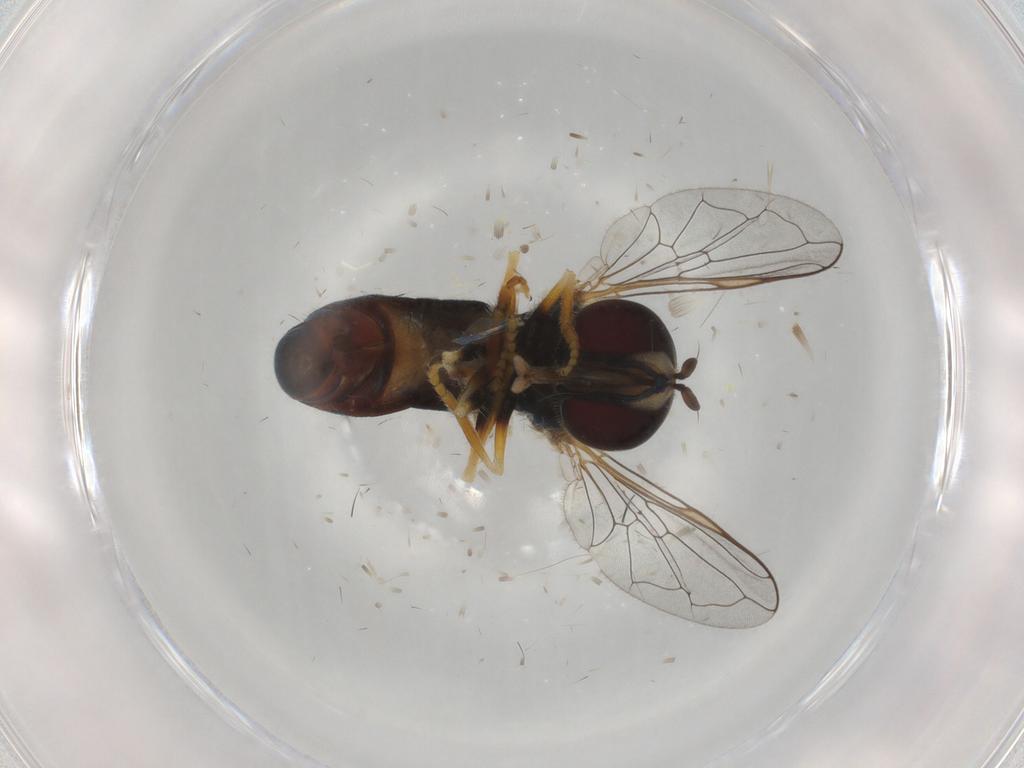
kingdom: Animalia
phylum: Arthropoda
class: Insecta
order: Diptera
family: Syrphidae
